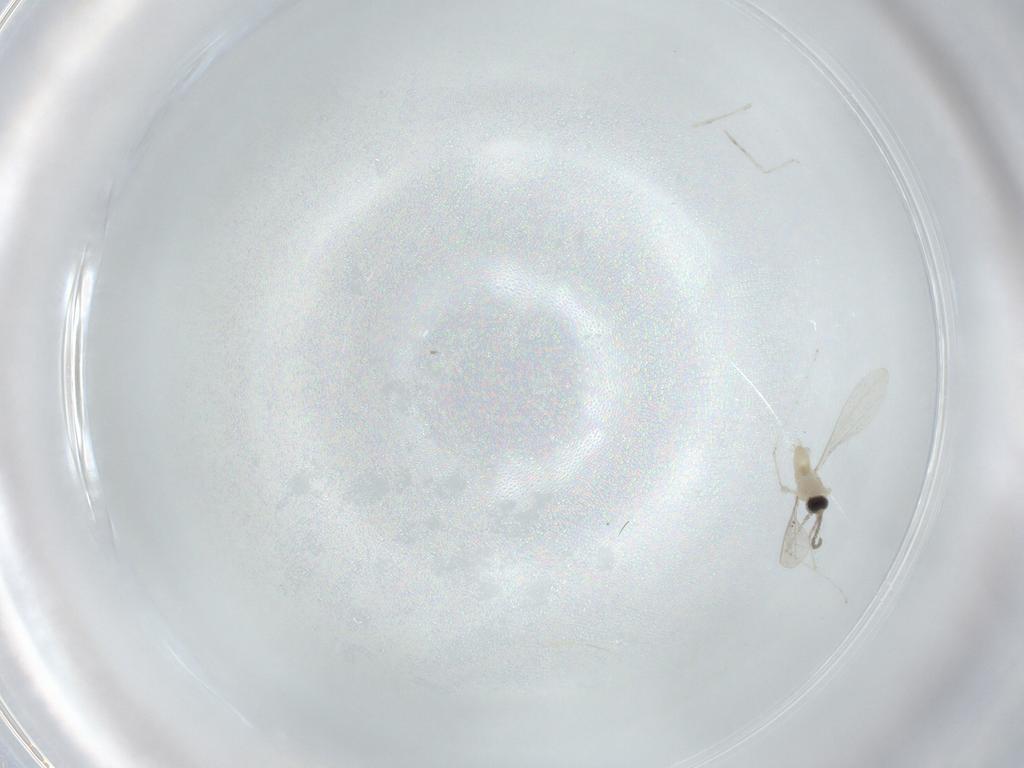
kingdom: Animalia
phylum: Arthropoda
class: Insecta
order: Diptera
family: Cecidomyiidae
